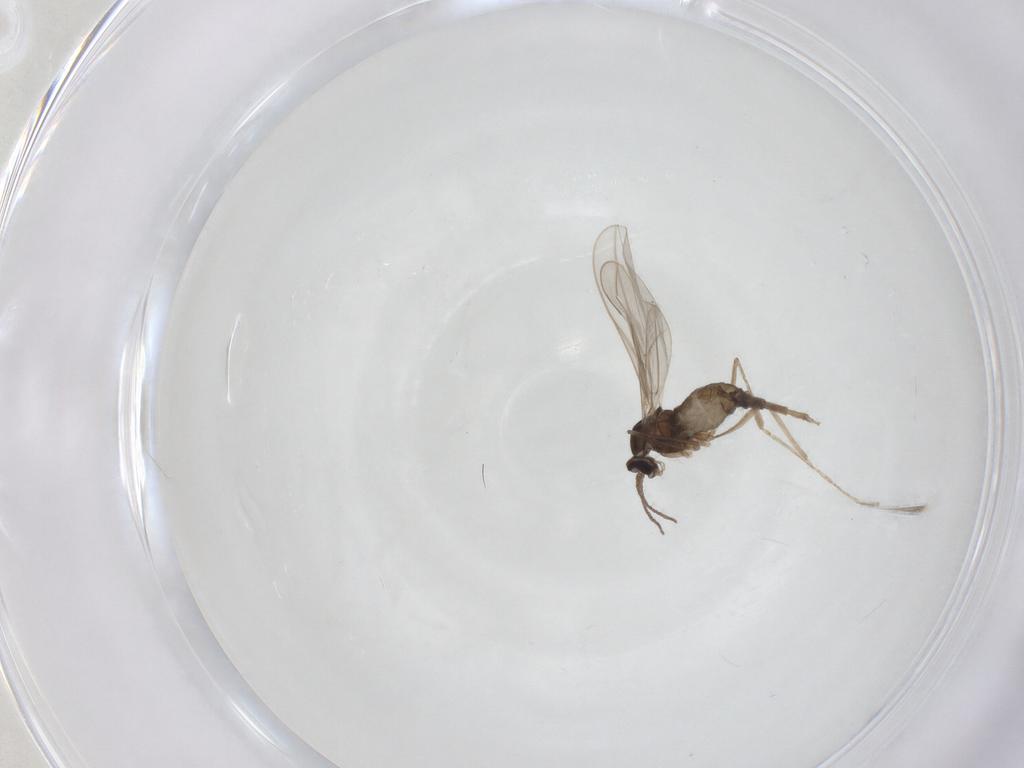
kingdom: Animalia
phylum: Arthropoda
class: Insecta
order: Diptera
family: Cecidomyiidae
